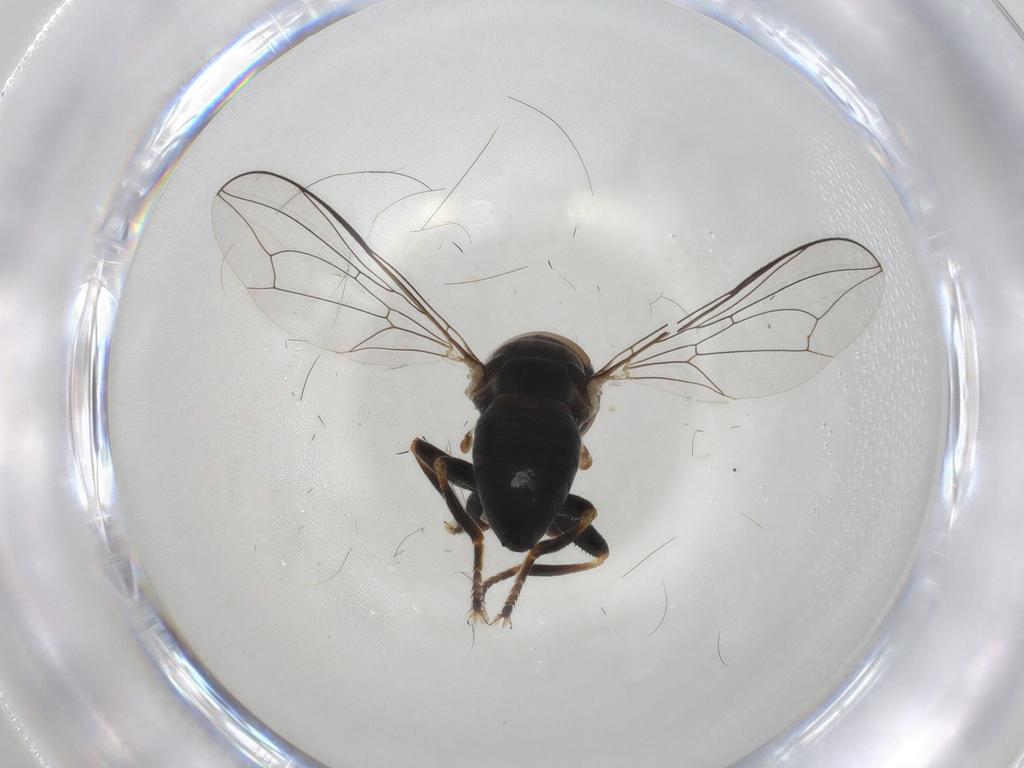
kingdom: Animalia
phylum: Arthropoda
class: Insecta
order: Diptera
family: Pipunculidae
